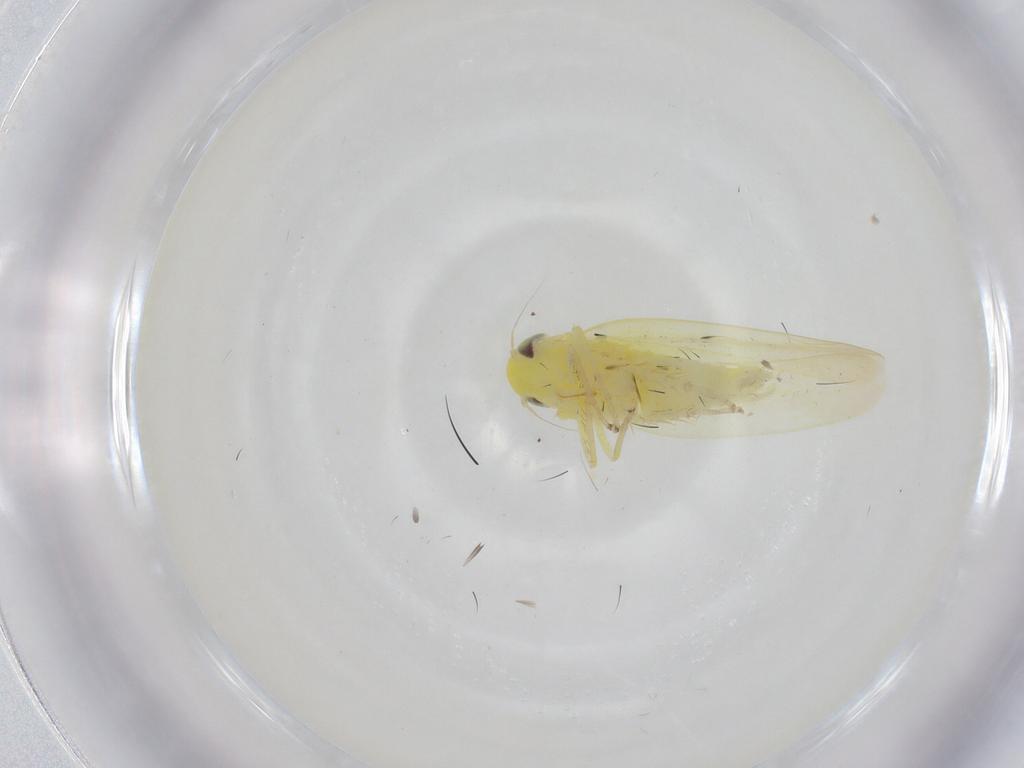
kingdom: Animalia
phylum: Arthropoda
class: Insecta
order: Hemiptera
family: Cicadellidae
